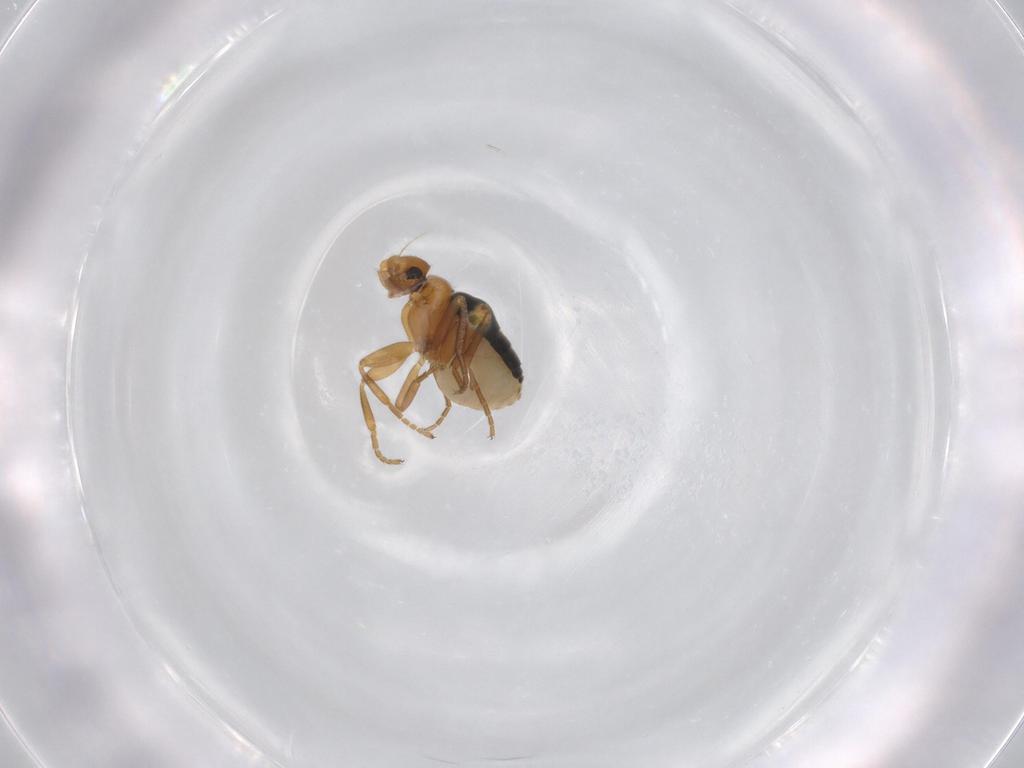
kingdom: Animalia
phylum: Arthropoda
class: Insecta
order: Diptera
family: Phoridae
